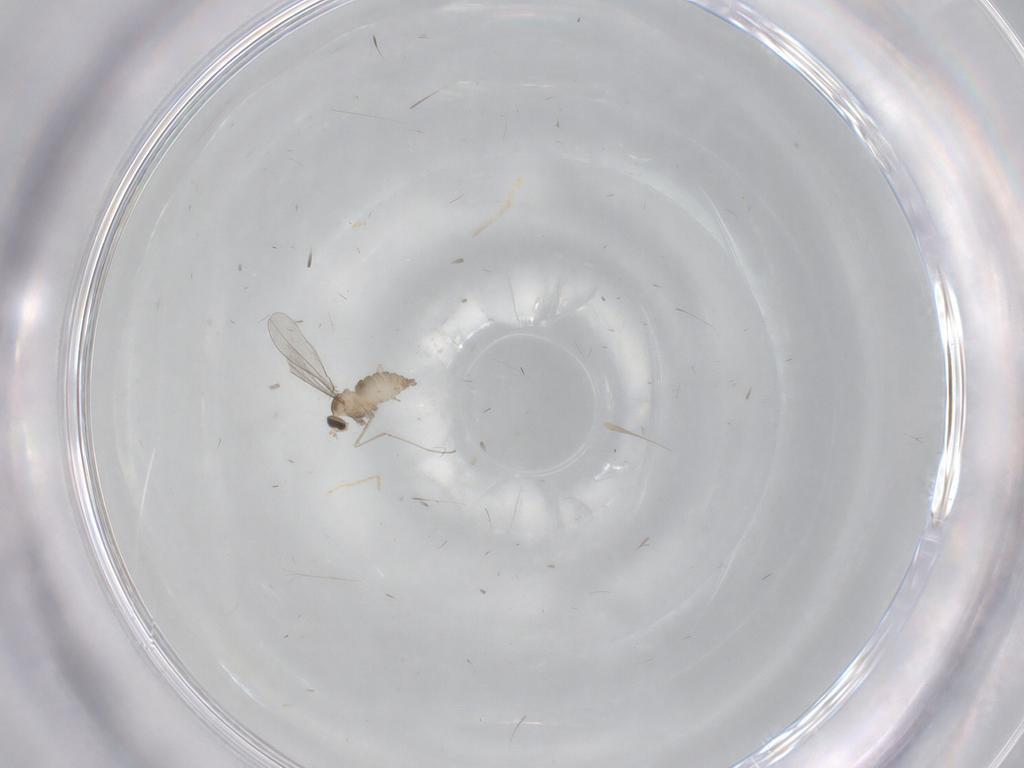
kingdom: Animalia
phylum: Arthropoda
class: Insecta
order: Diptera
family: Cecidomyiidae
